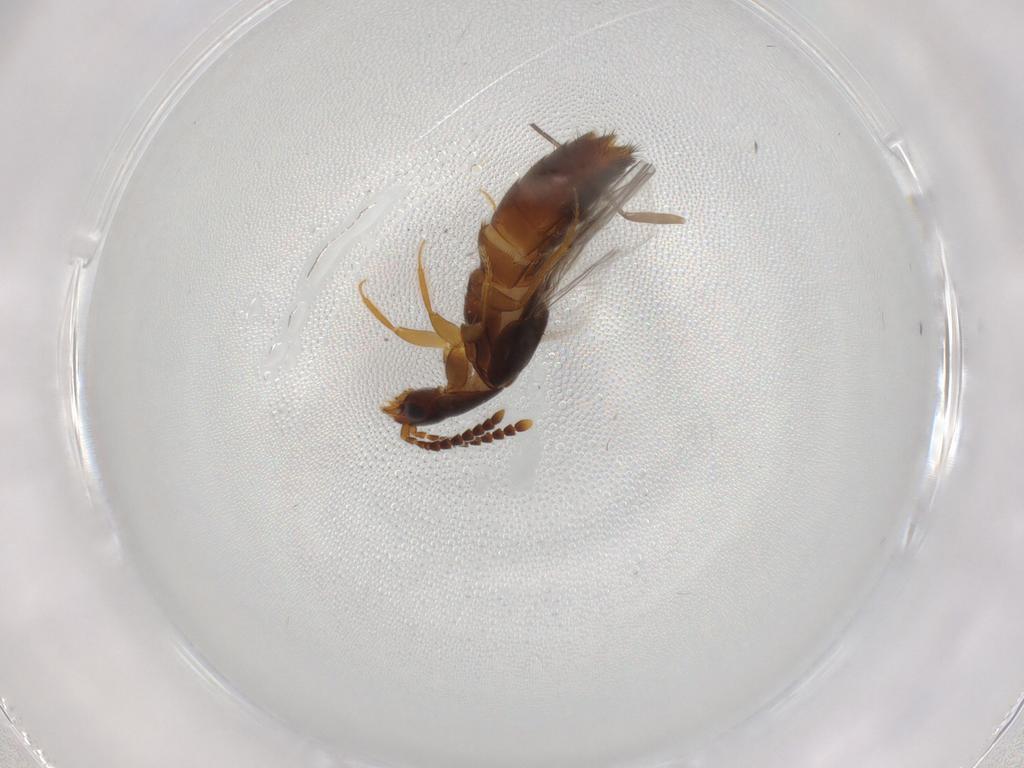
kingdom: Animalia
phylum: Arthropoda
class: Insecta
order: Coleoptera
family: Staphylinidae
